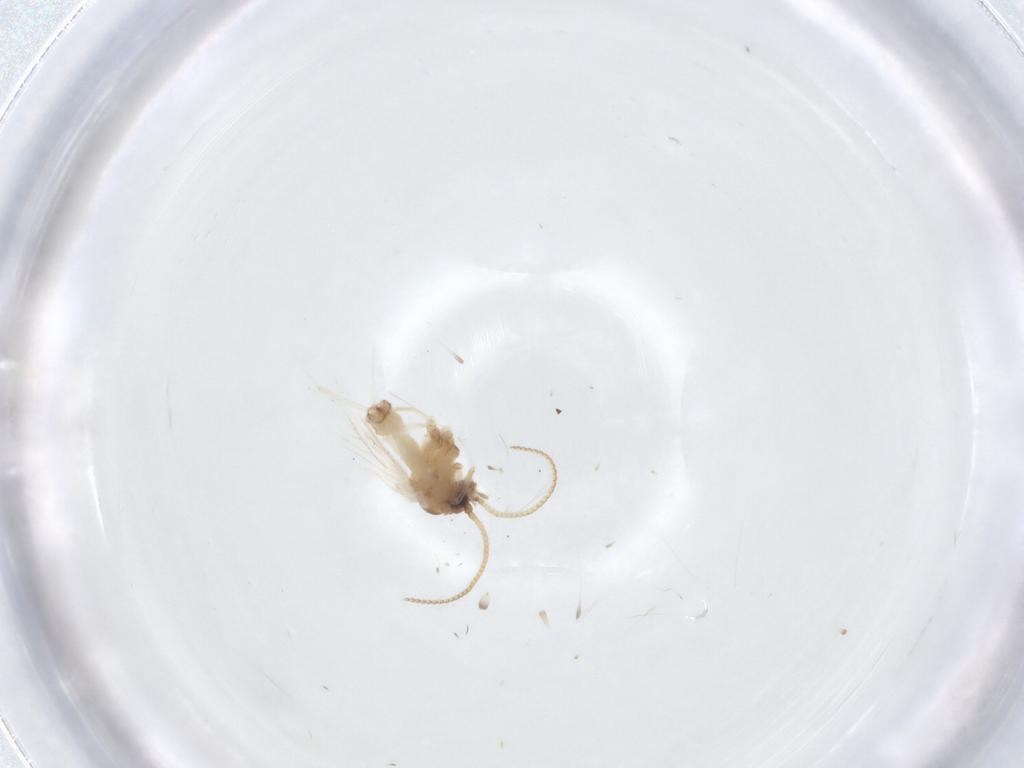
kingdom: Animalia
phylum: Arthropoda
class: Insecta
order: Neuroptera
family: Coniopterygidae
